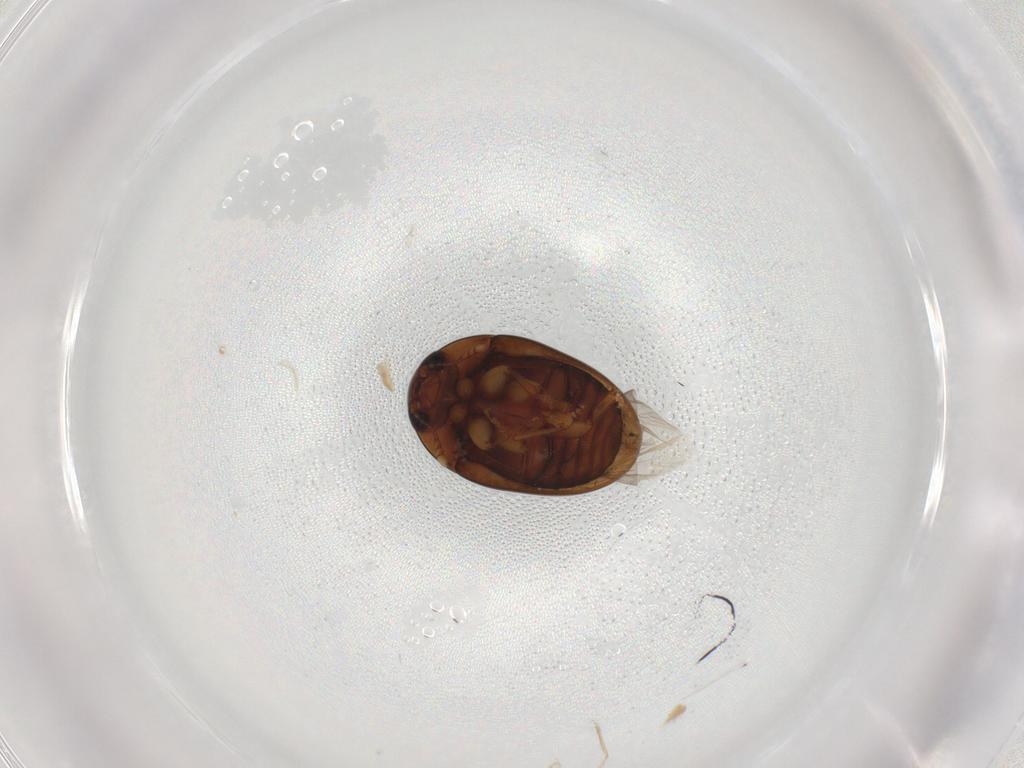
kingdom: Animalia
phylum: Arthropoda
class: Insecta
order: Coleoptera
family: Phalacridae
